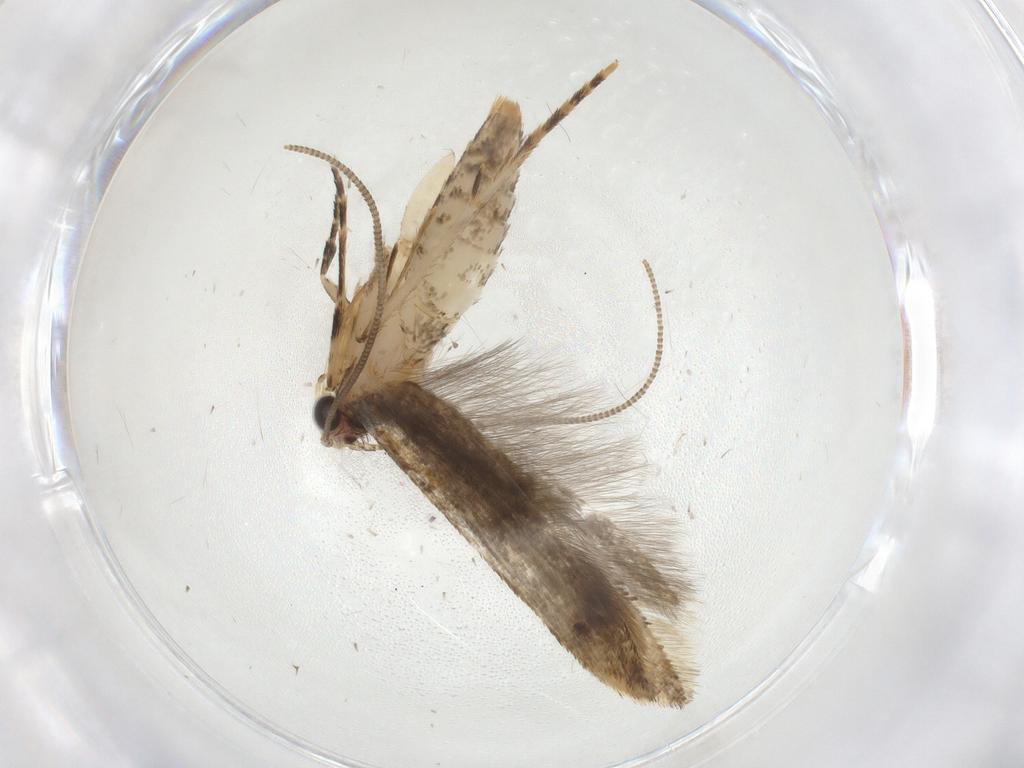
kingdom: Animalia
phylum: Arthropoda
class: Insecta
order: Lepidoptera
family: Tineidae
